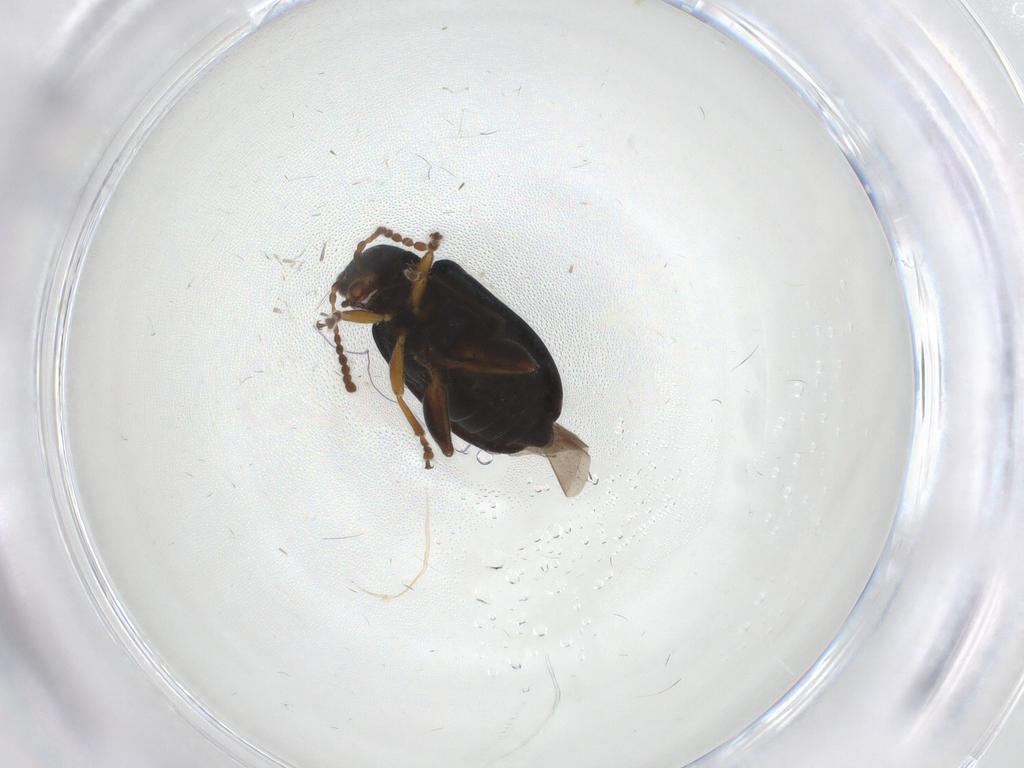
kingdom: Animalia
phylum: Arthropoda
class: Insecta
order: Coleoptera
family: Chrysomelidae
